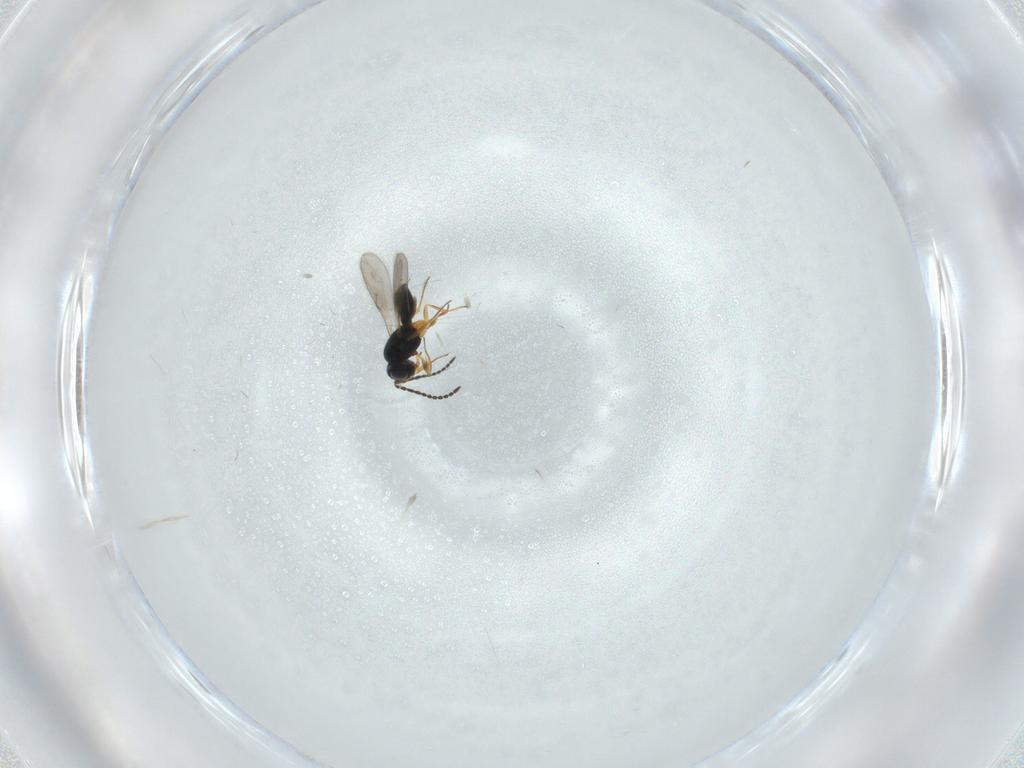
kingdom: Animalia
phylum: Arthropoda
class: Insecta
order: Hymenoptera
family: Scelionidae
